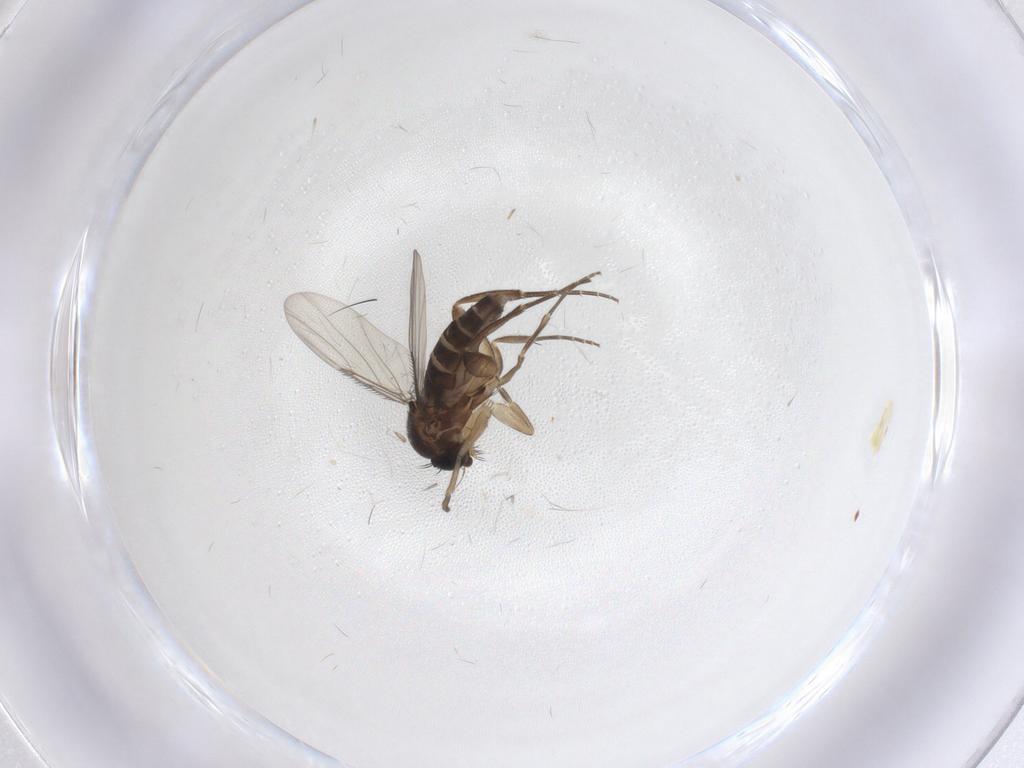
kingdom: Animalia
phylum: Arthropoda
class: Insecta
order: Diptera
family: Phoridae
